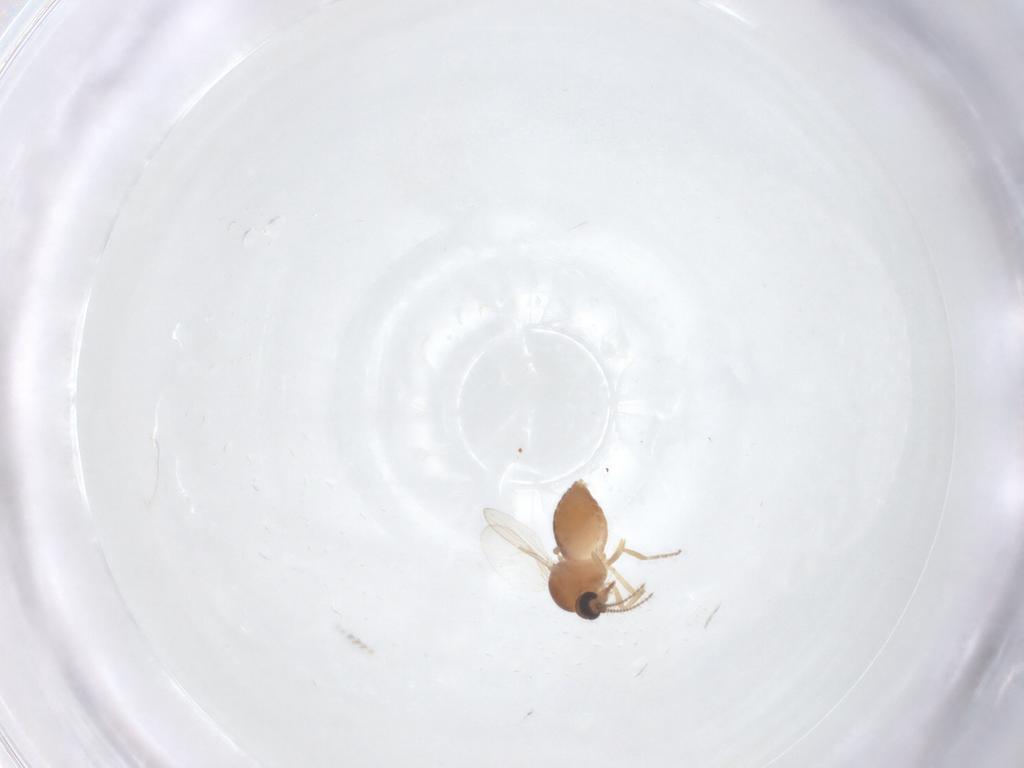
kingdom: Animalia
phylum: Arthropoda
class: Insecta
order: Diptera
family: Ceratopogonidae
